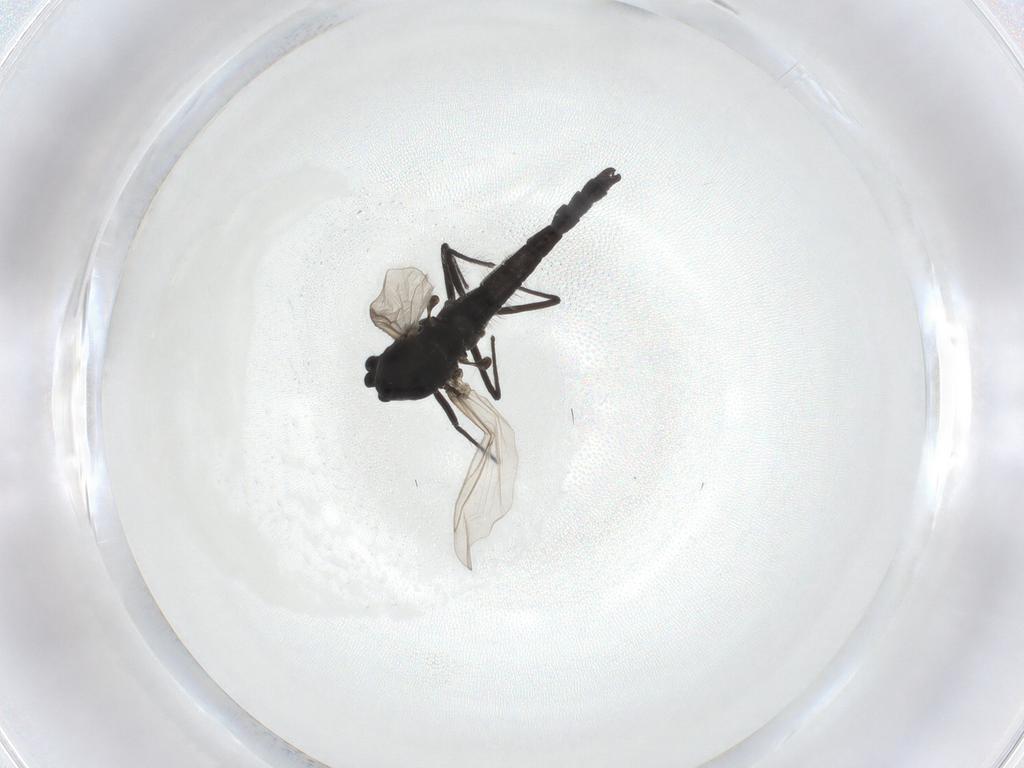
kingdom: Animalia
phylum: Arthropoda
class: Insecta
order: Diptera
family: Chironomidae
